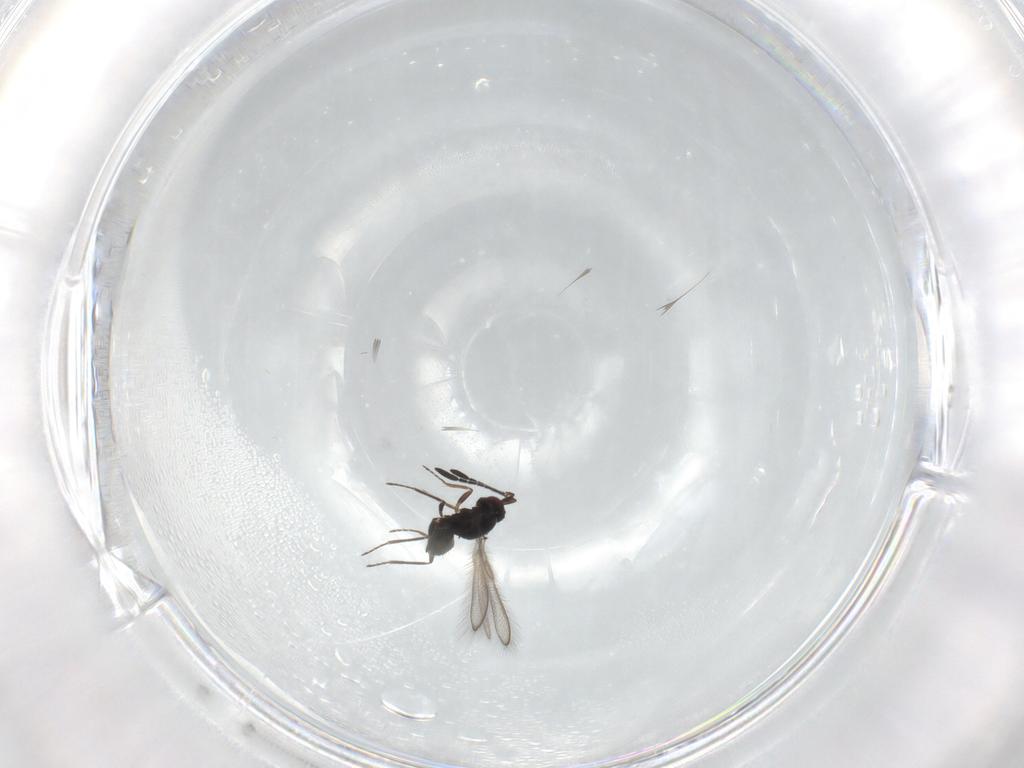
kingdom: Animalia
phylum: Arthropoda
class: Insecta
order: Hymenoptera
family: Mymaridae
